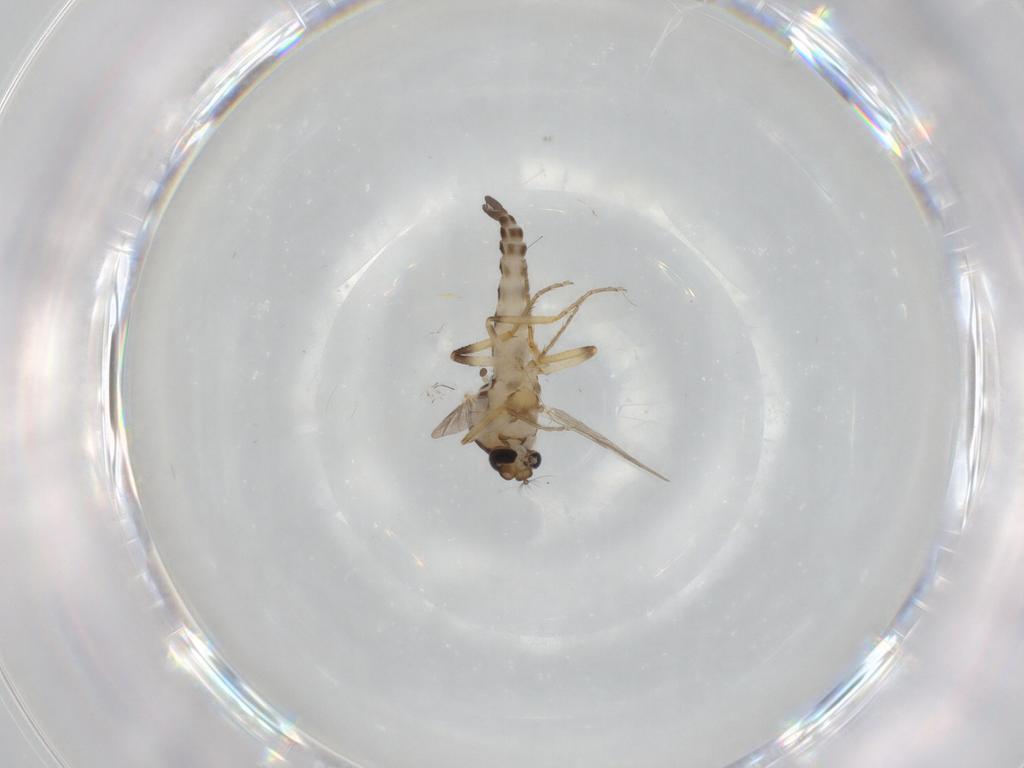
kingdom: Animalia
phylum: Arthropoda
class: Insecta
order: Diptera
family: Ceratopogonidae
